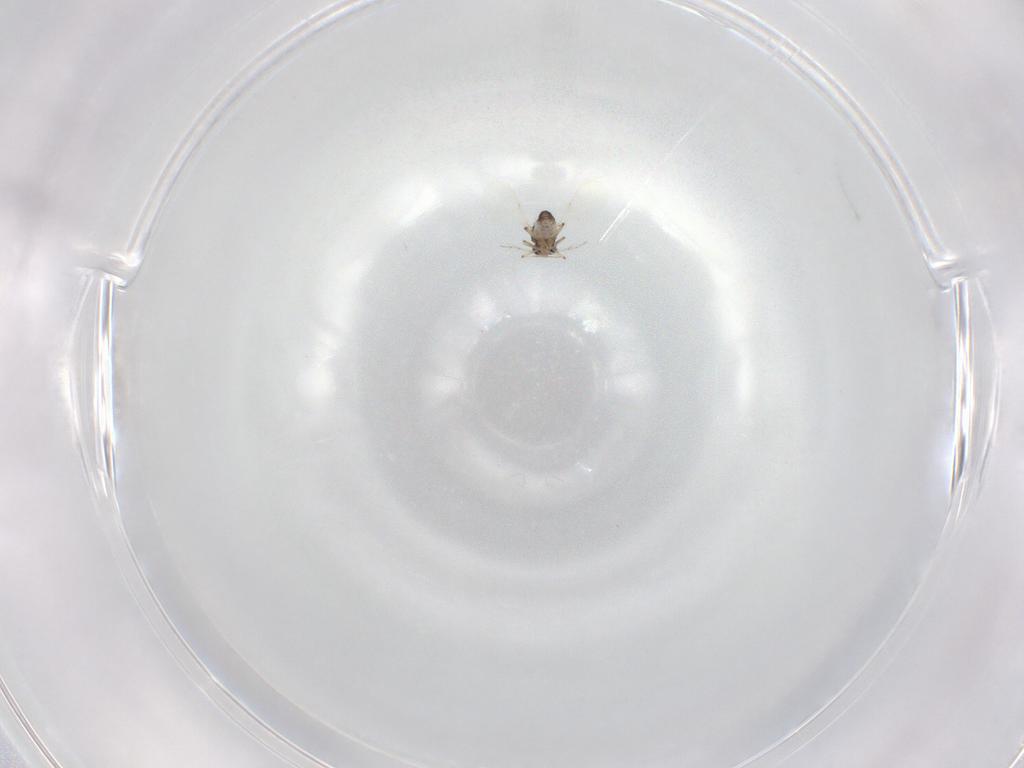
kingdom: Animalia
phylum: Arthropoda
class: Insecta
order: Diptera
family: Ceratopogonidae
